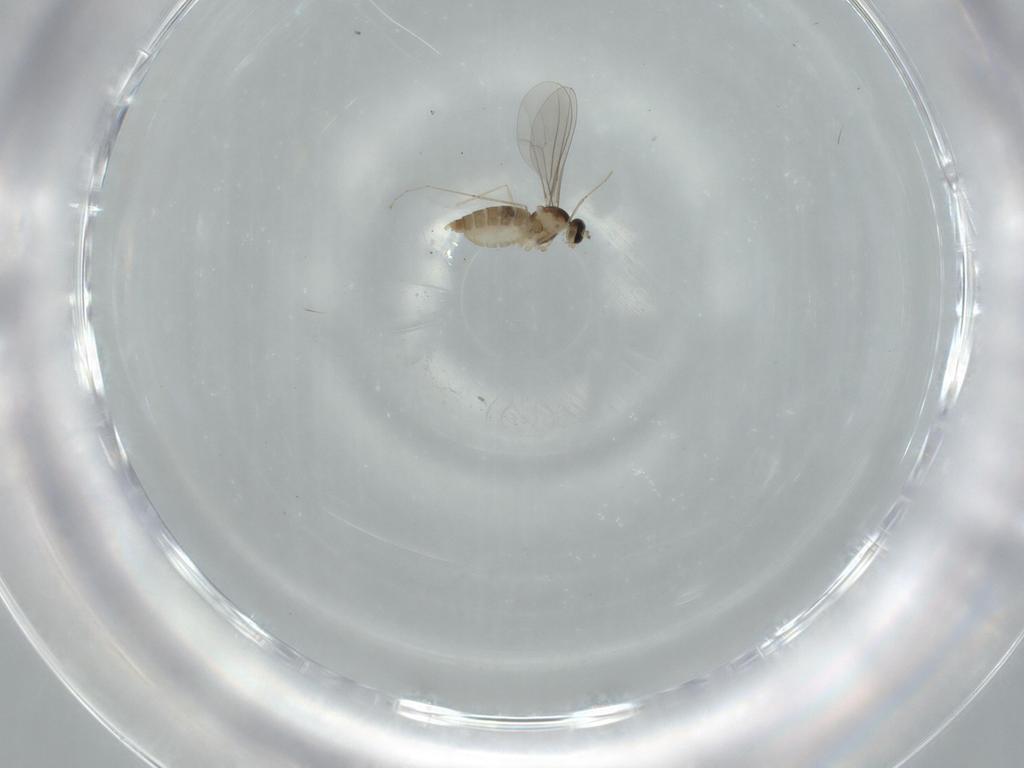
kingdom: Animalia
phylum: Arthropoda
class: Insecta
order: Diptera
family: Cecidomyiidae
